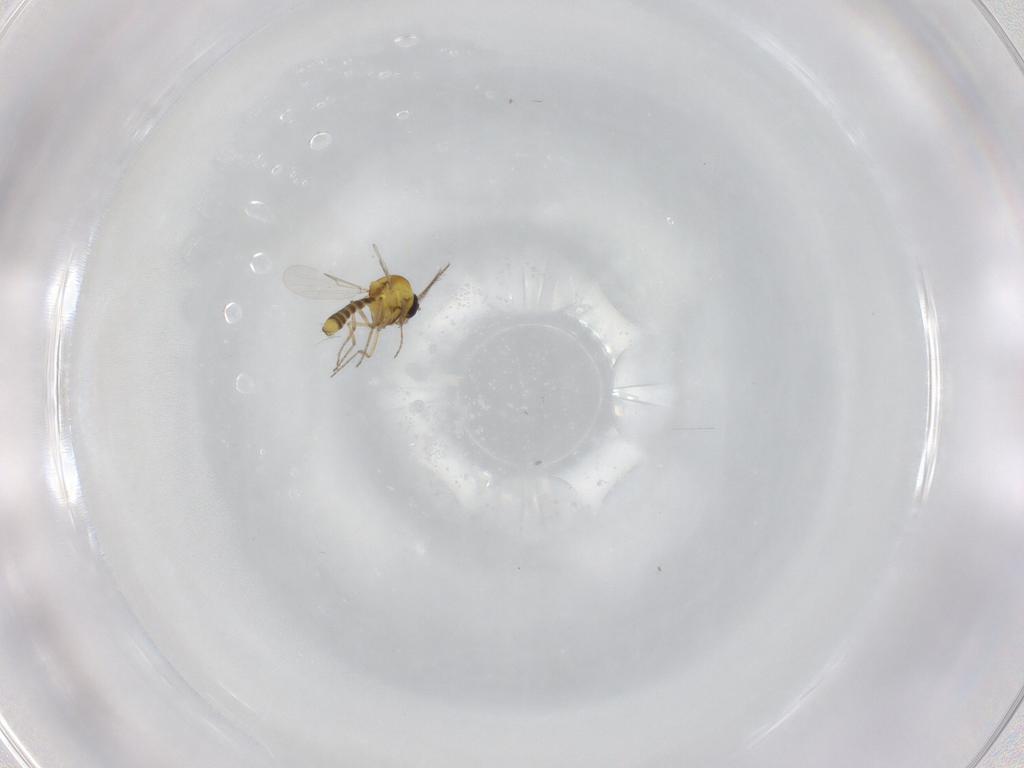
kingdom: Animalia
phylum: Arthropoda
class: Insecta
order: Diptera
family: Ceratopogonidae
